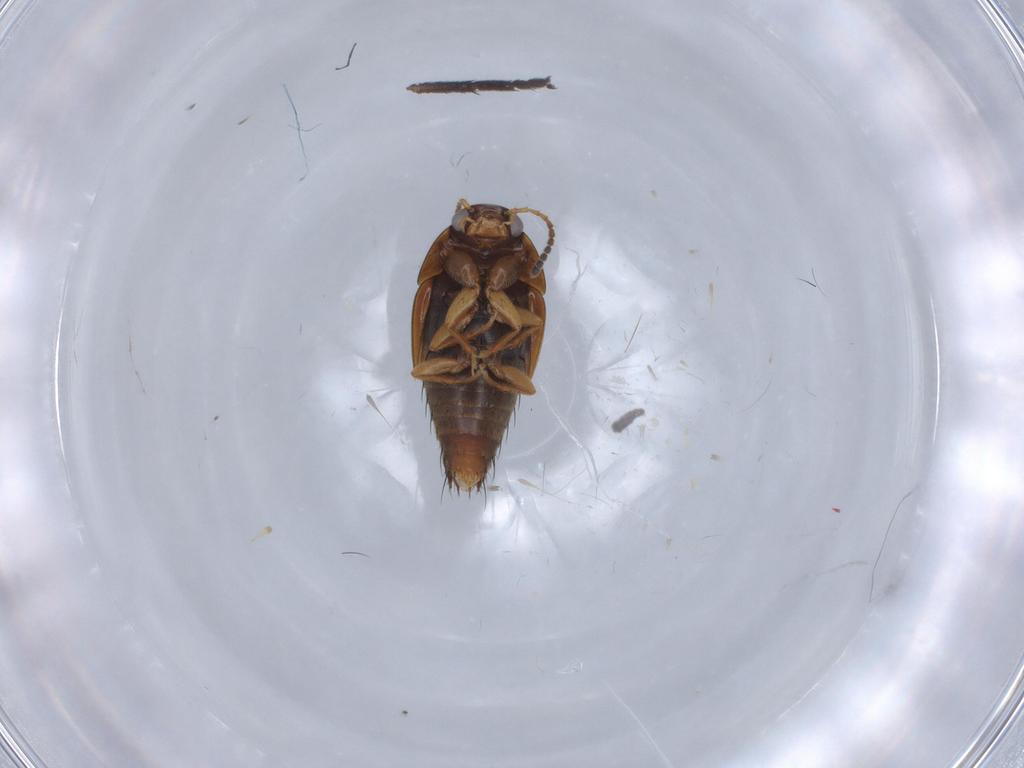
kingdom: Animalia
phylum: Arthropoda
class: Insecta
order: Coleoptera
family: Staphylinidae
